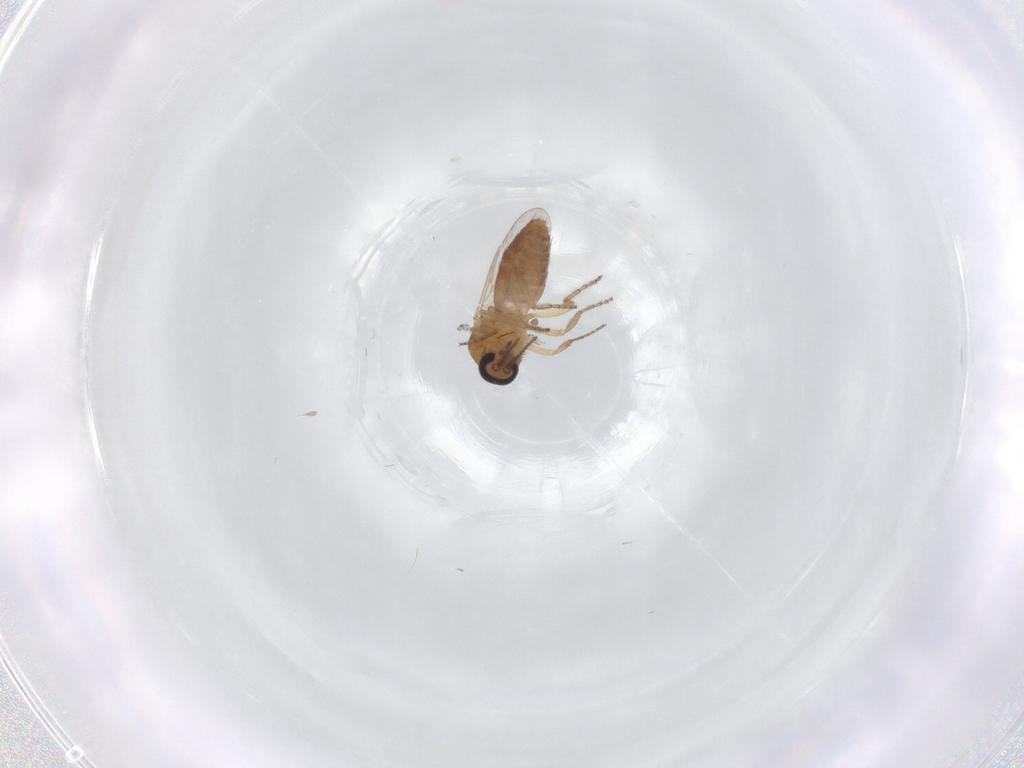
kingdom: Animalia
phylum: Arthropoda
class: Insecta
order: Diptera
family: Ceratopogonidae
